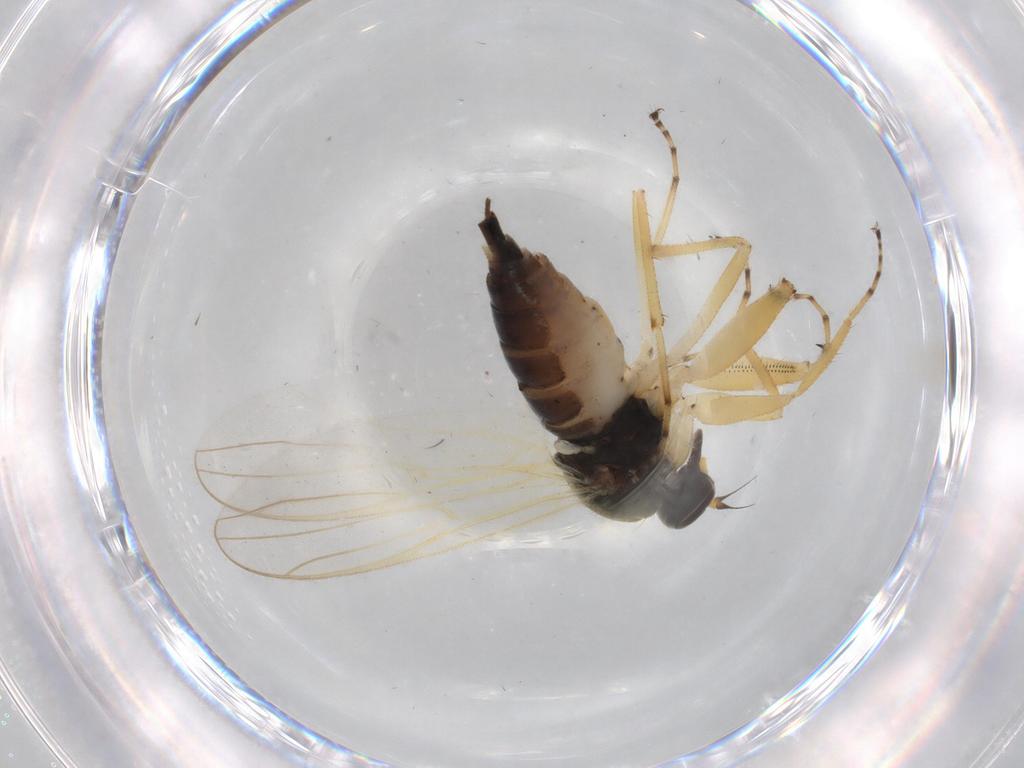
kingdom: Animalia
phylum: Arthropoda
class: Insecta
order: Diptera
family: Hybotidae
